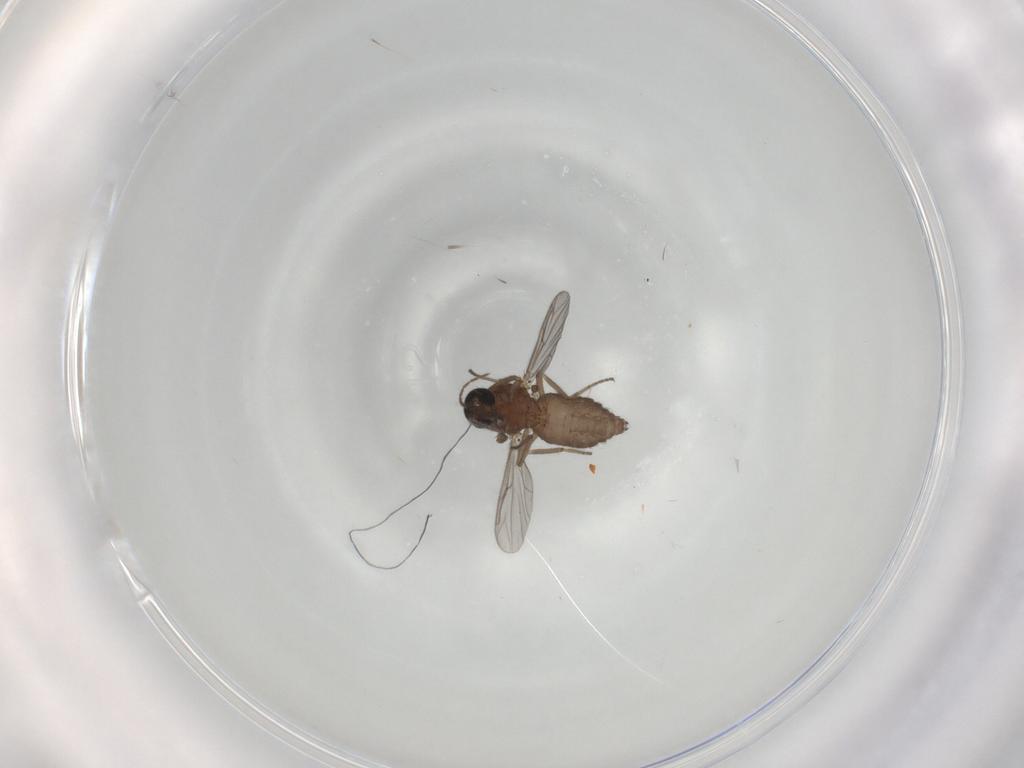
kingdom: Animalia
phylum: Arthropoda
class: Insecta
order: Diptera
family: Ceratopogonidae
